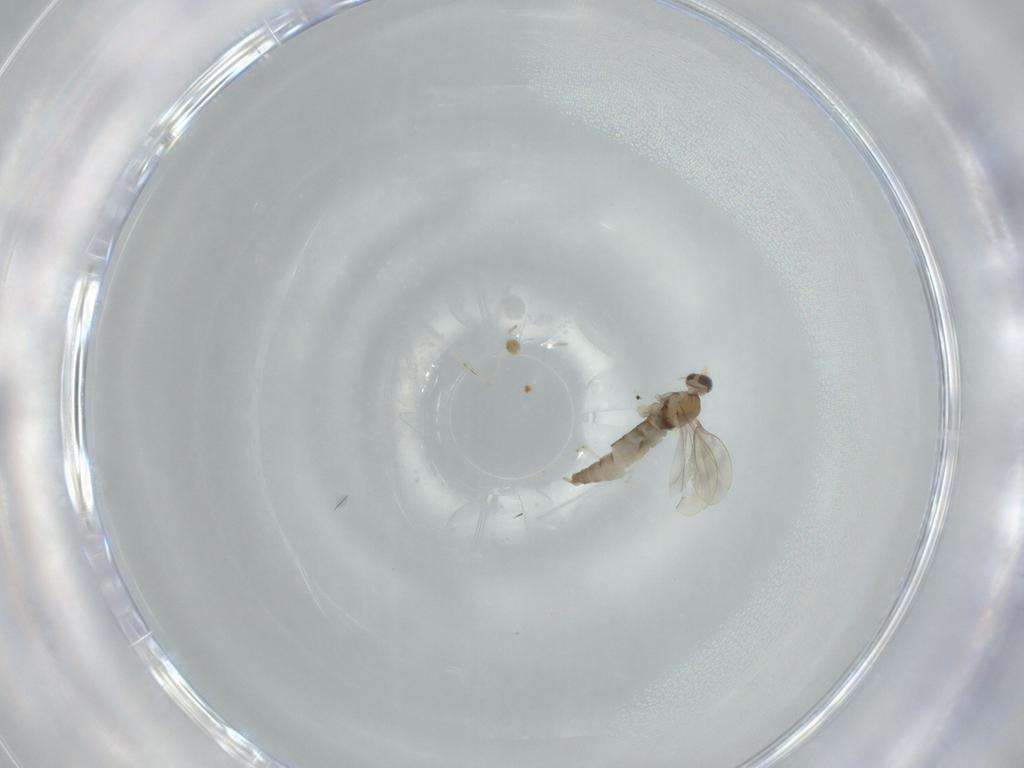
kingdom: Animalia
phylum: Arthropoda
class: Insecta
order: Diptera
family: Cecidomyiidae
